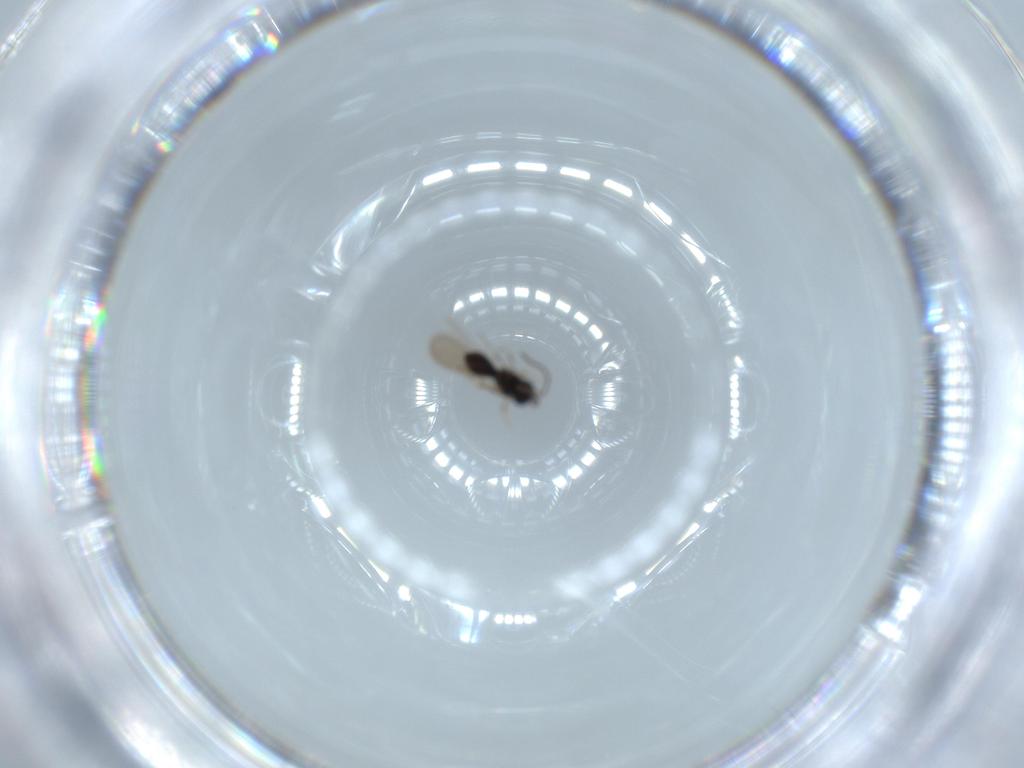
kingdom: Animalia
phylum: Arthropoda
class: Insecta
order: Hymenoptera
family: Scelionidae
